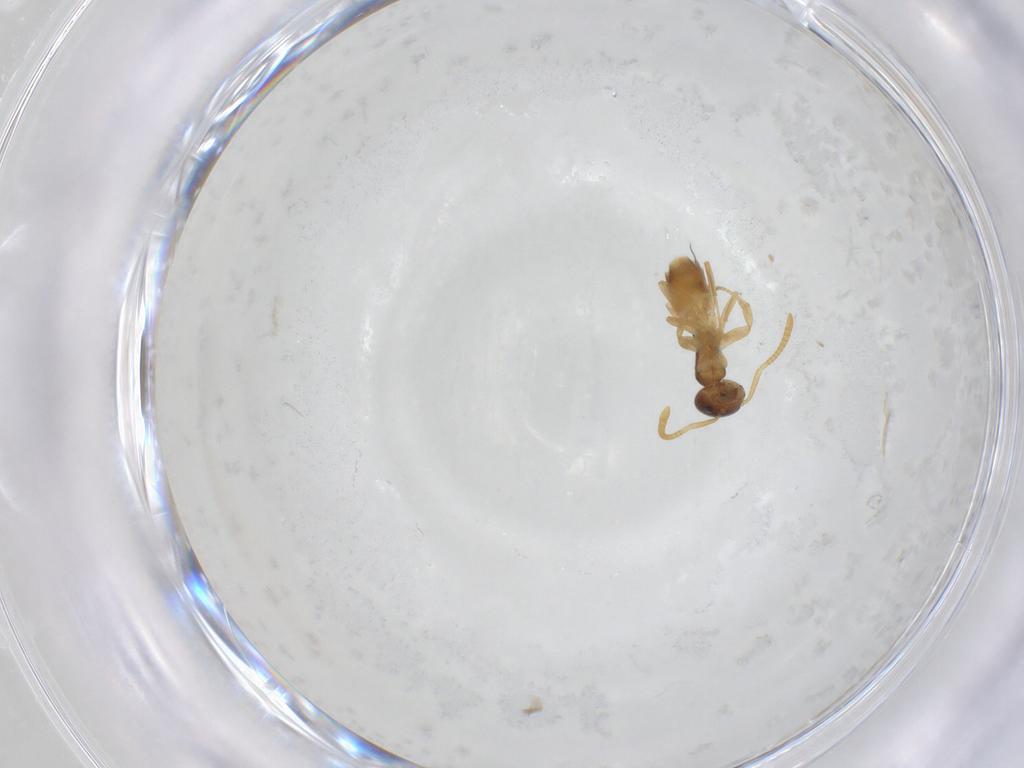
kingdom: Animalia
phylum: Arthropoda
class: Insecta
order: Hymenoptera
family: Formicidae
